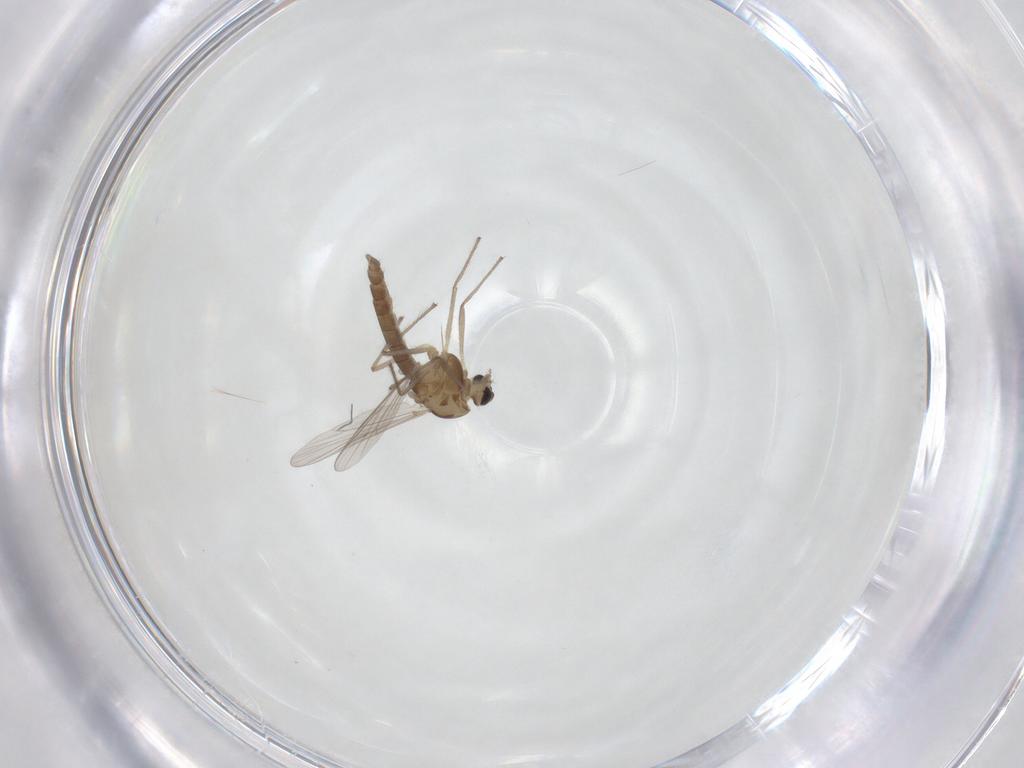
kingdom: Animalia
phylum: Arthropoda
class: Insecta
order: Diptera
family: Chironomidae
